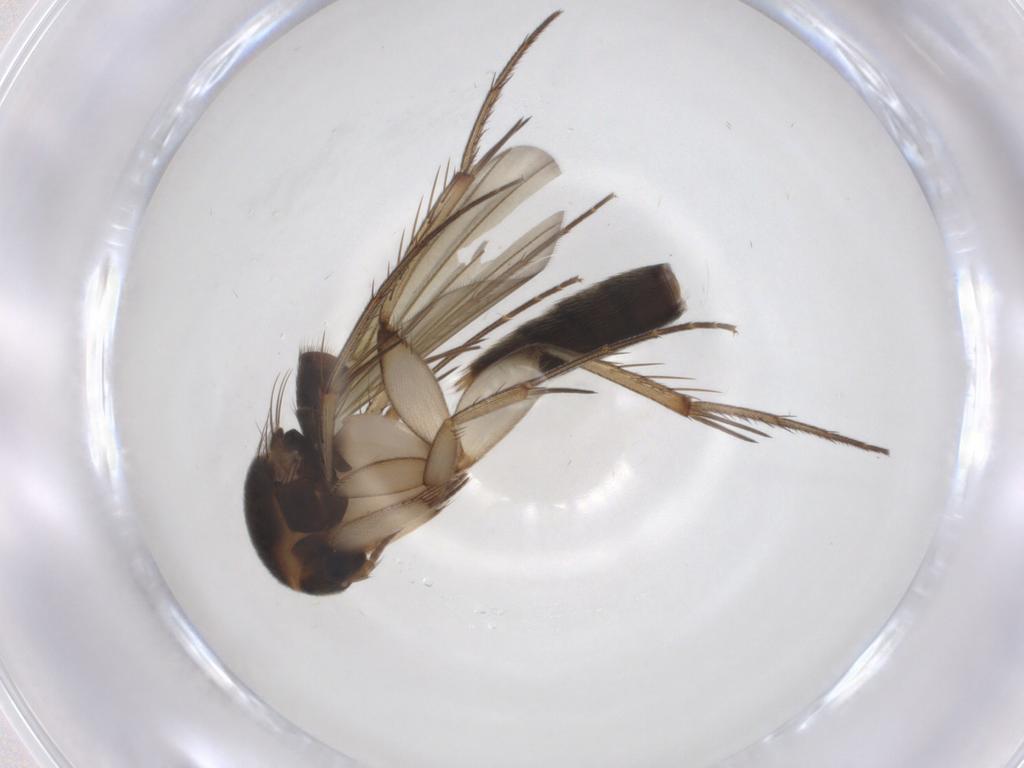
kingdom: Animalia
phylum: Arthropoda
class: Insecta
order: Diptera
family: Mycetophilidae
